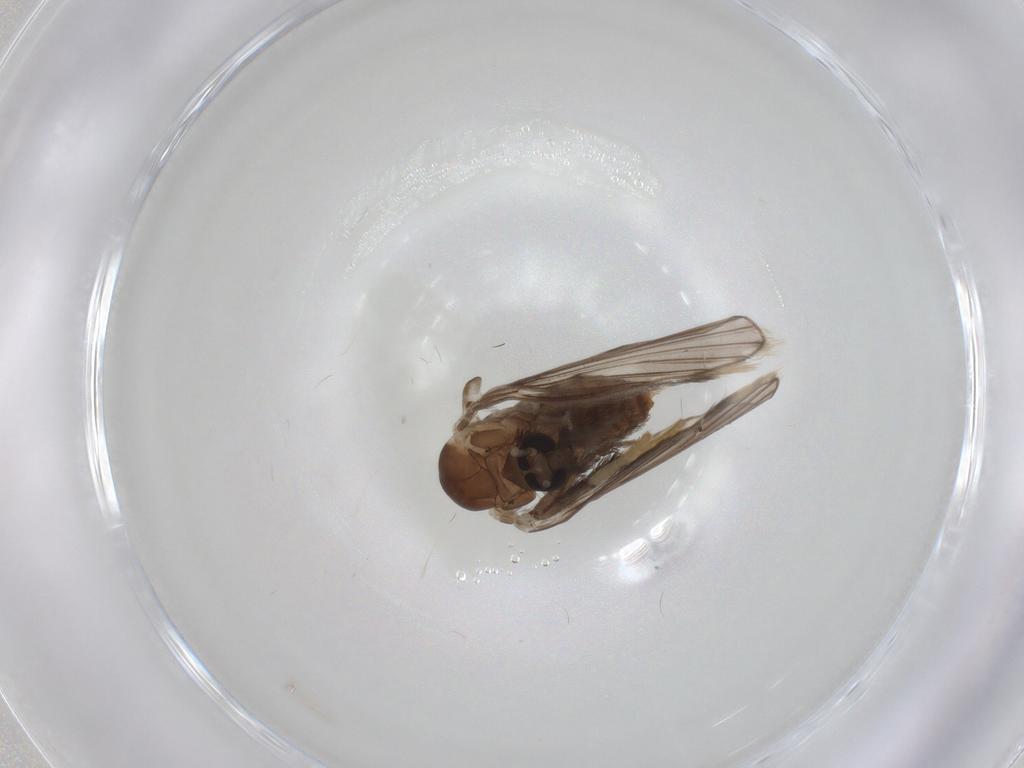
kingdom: Animalia
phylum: Arthropoda
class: Insecta
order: Diptera
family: Psychodidae
